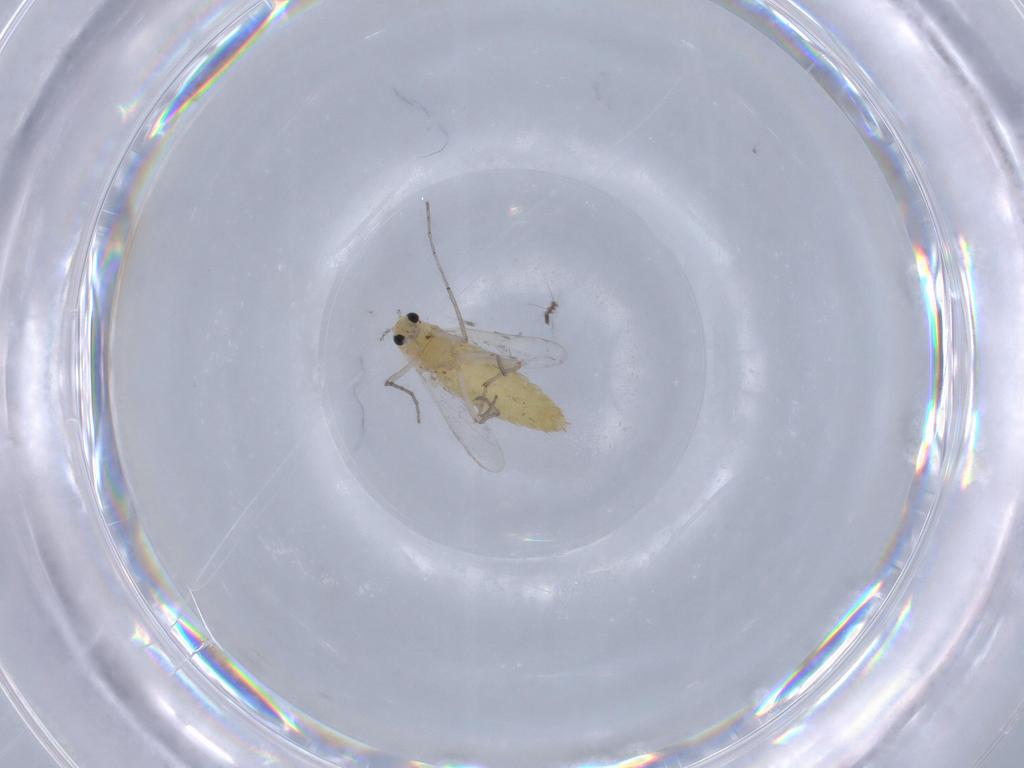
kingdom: Animalia
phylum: Arthropoda
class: Insecta
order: Diptera
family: Chironomidae
